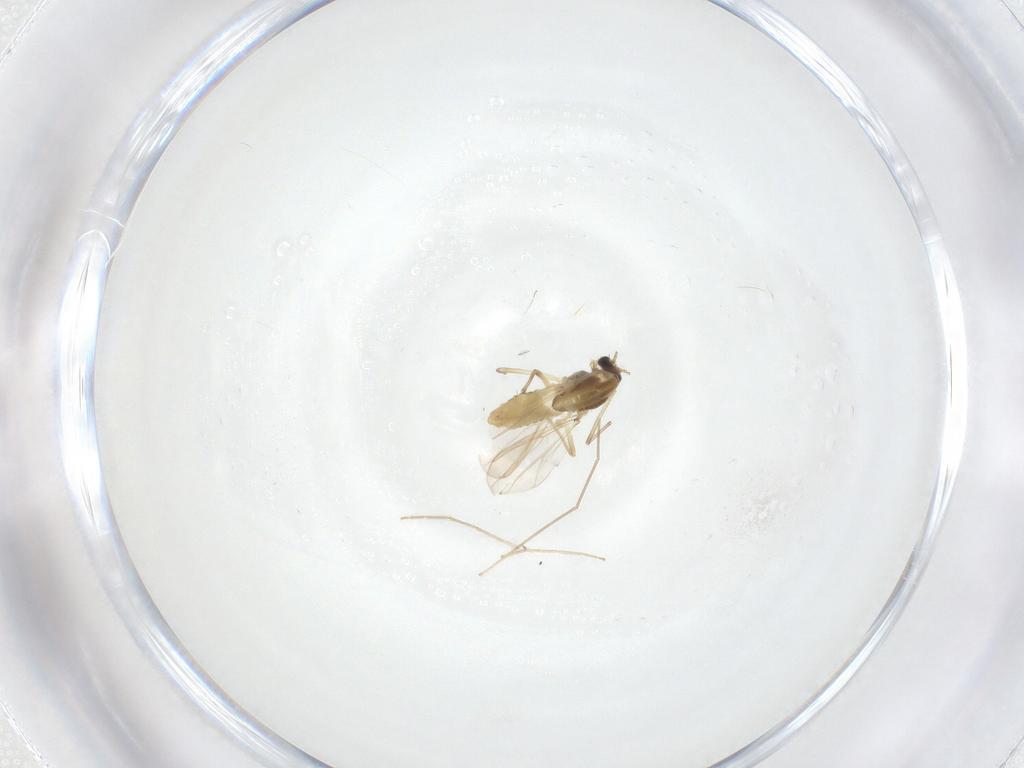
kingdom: Animalia
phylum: Arthropoda
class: Insecta
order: Diptera
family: Chironomidae
